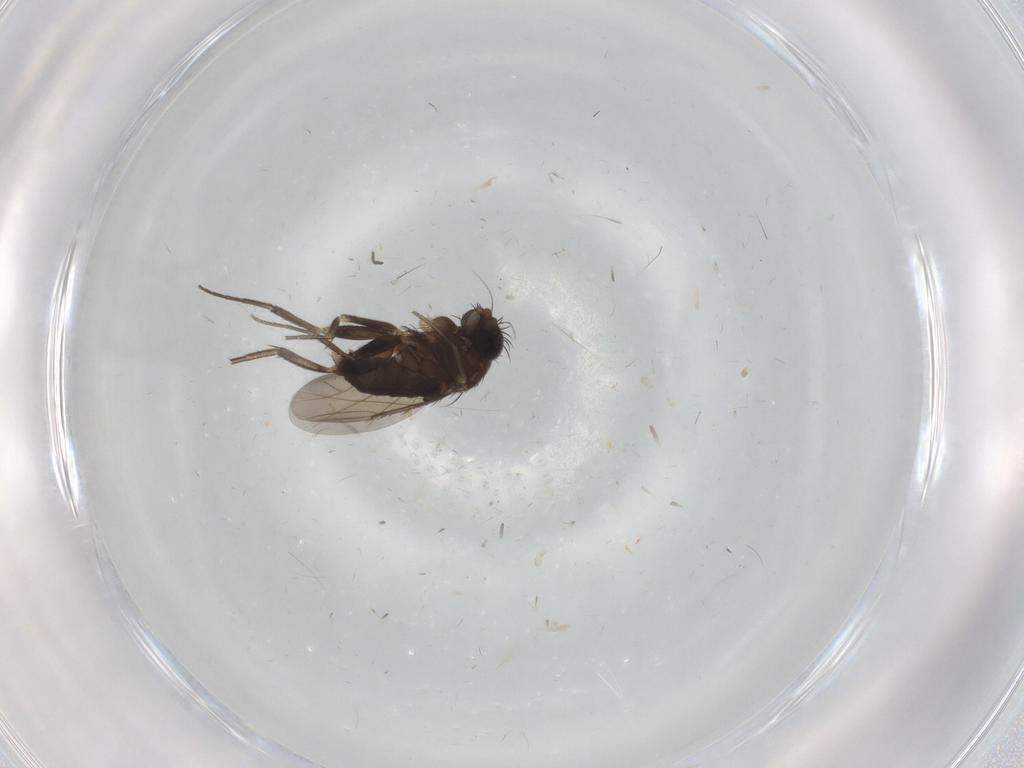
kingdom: Animalia
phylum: Arthropoda
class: Insecta
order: Diptera
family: Phoridae
